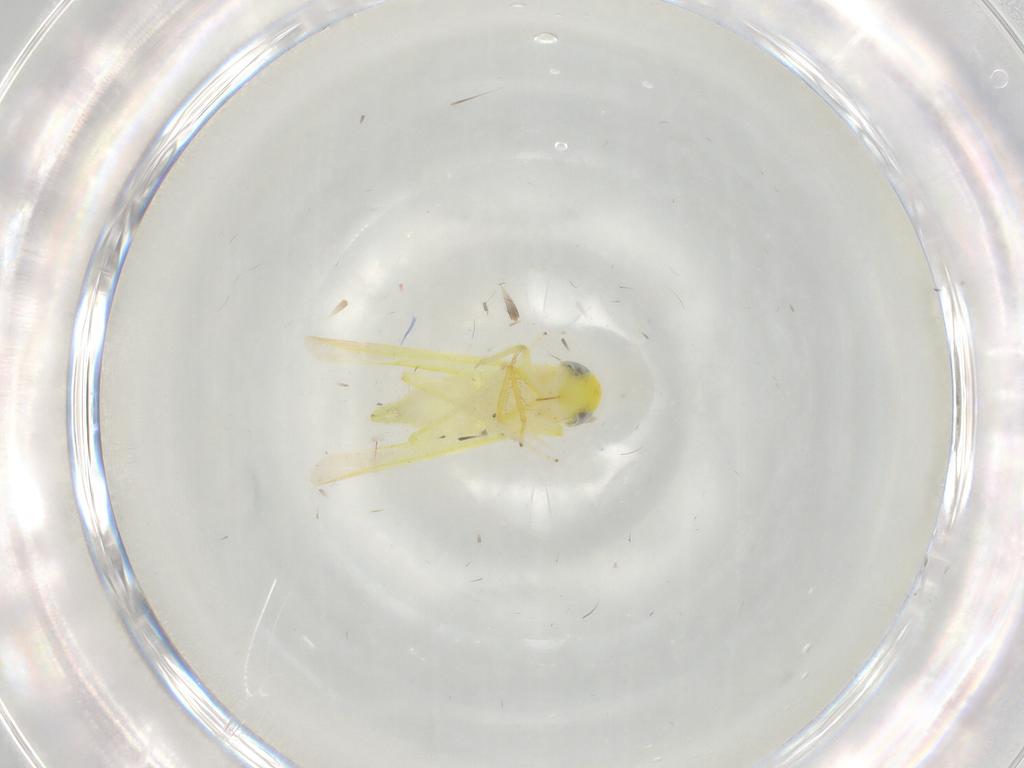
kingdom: Animalia
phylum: Arthropoda
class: Insecta
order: Hemiptera
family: Cicadellidae
